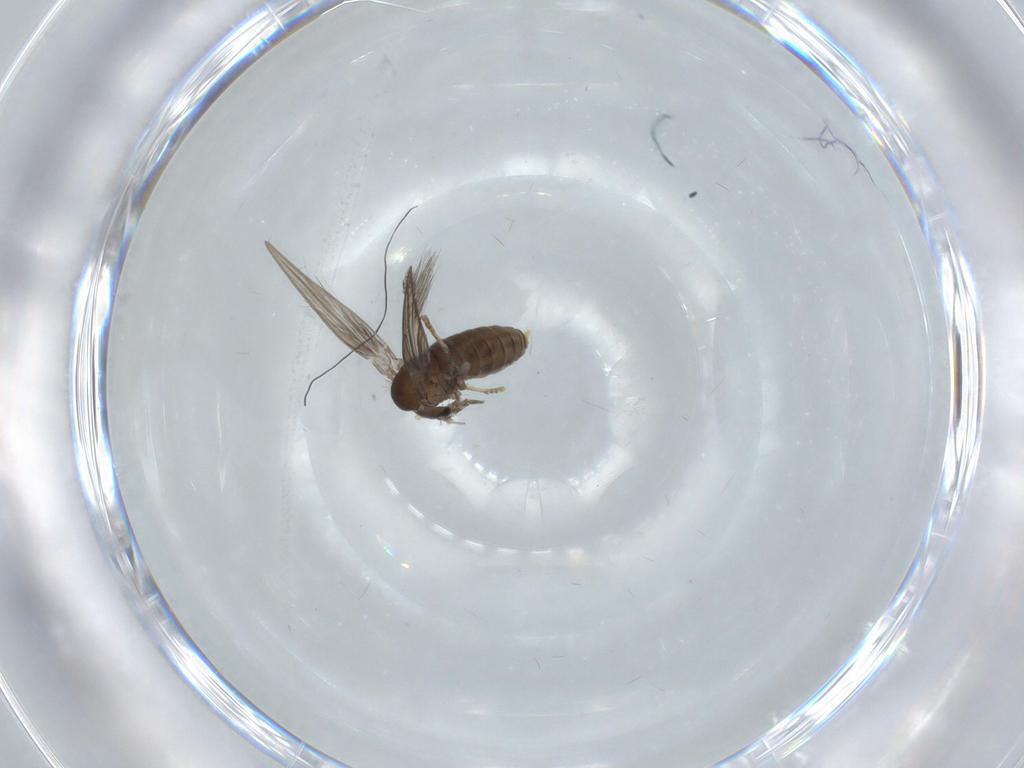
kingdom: Animalia
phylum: Arthropoda
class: Insecta
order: Diptera
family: Psychodidae
